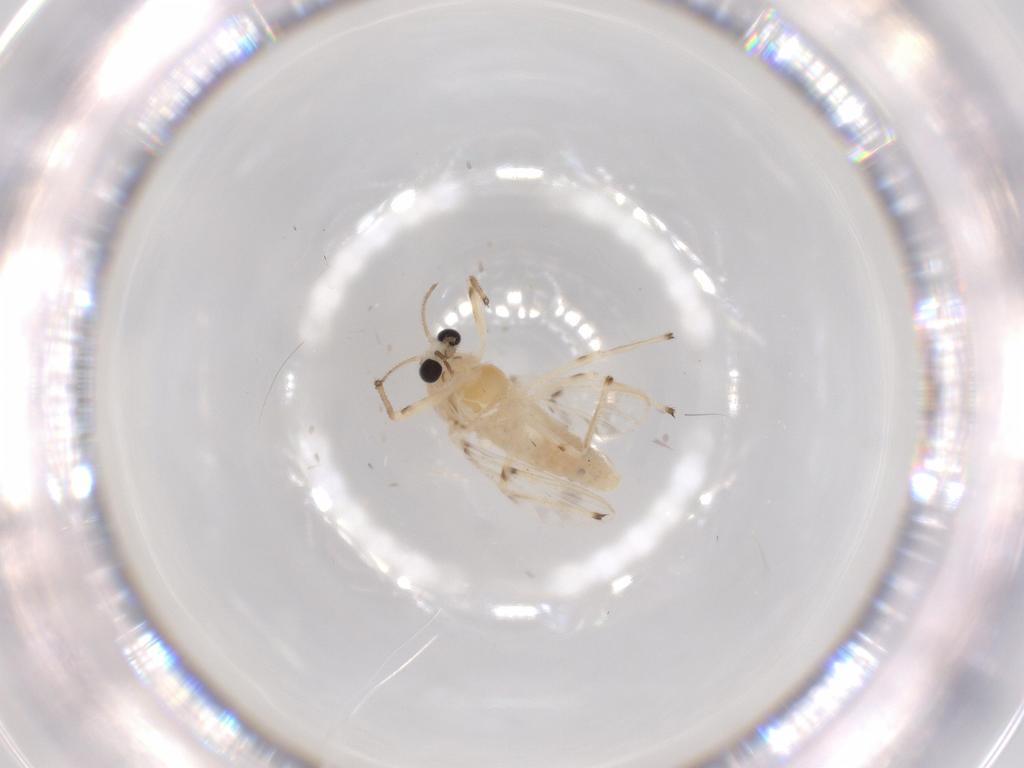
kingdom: Animalia
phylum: Arthropoda
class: Insecta
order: Diptera
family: Chironomidae
